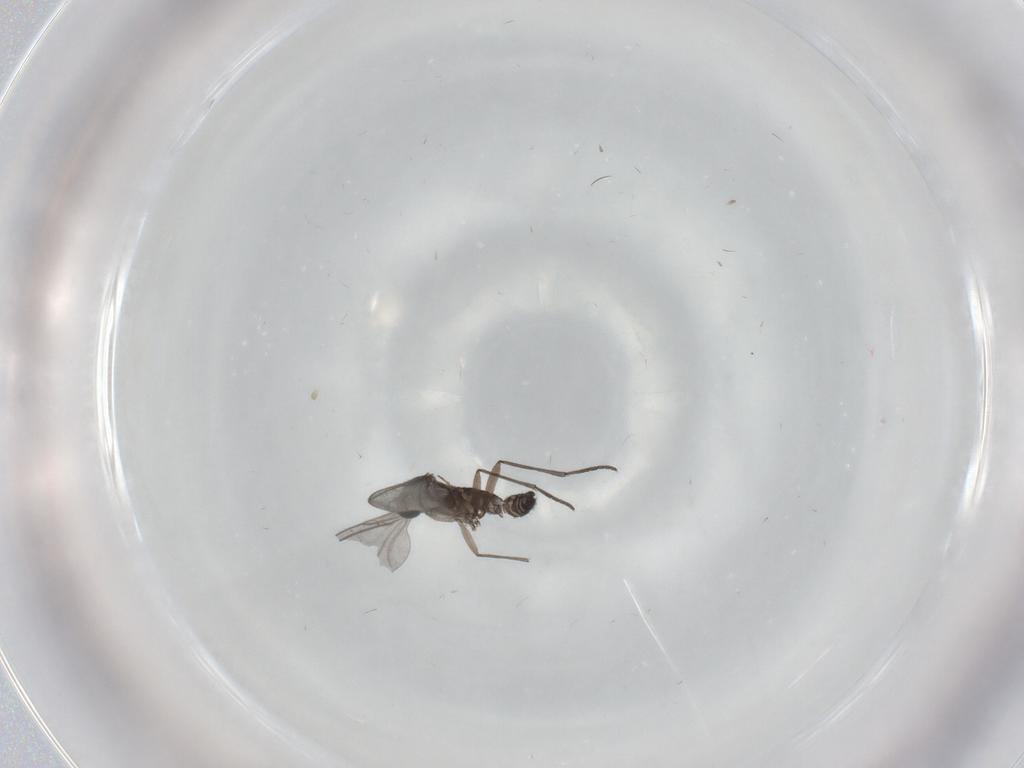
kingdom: Animalia
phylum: Arthropoda
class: Insecta
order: Diptera
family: Sciaridae
